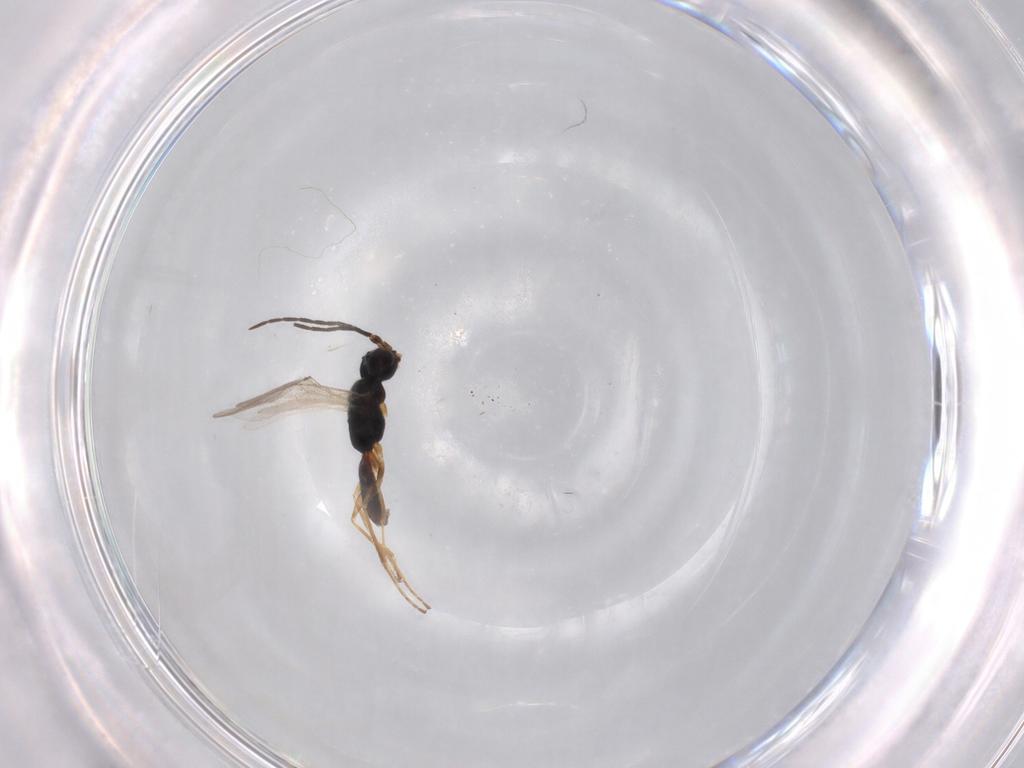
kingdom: Animalia
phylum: Arthropoda
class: Insecta
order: Hymenoptera
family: Dryinidae
